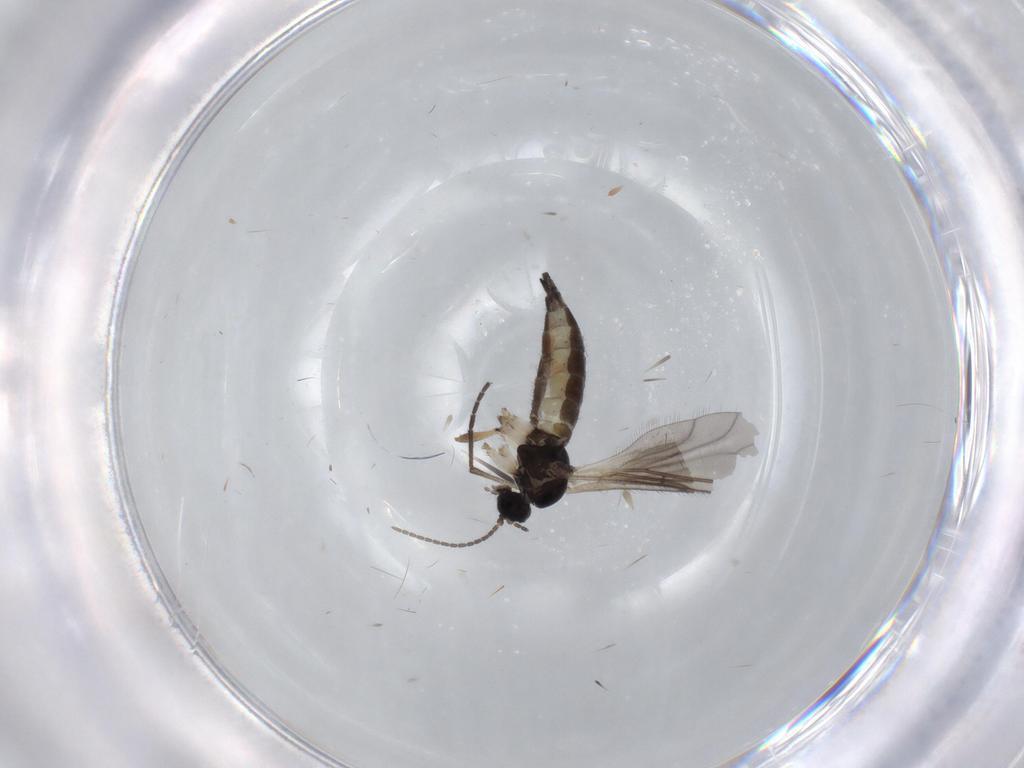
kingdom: Animalia
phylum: Arthropoda
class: Insecta
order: Diptera
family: Sciaridae
